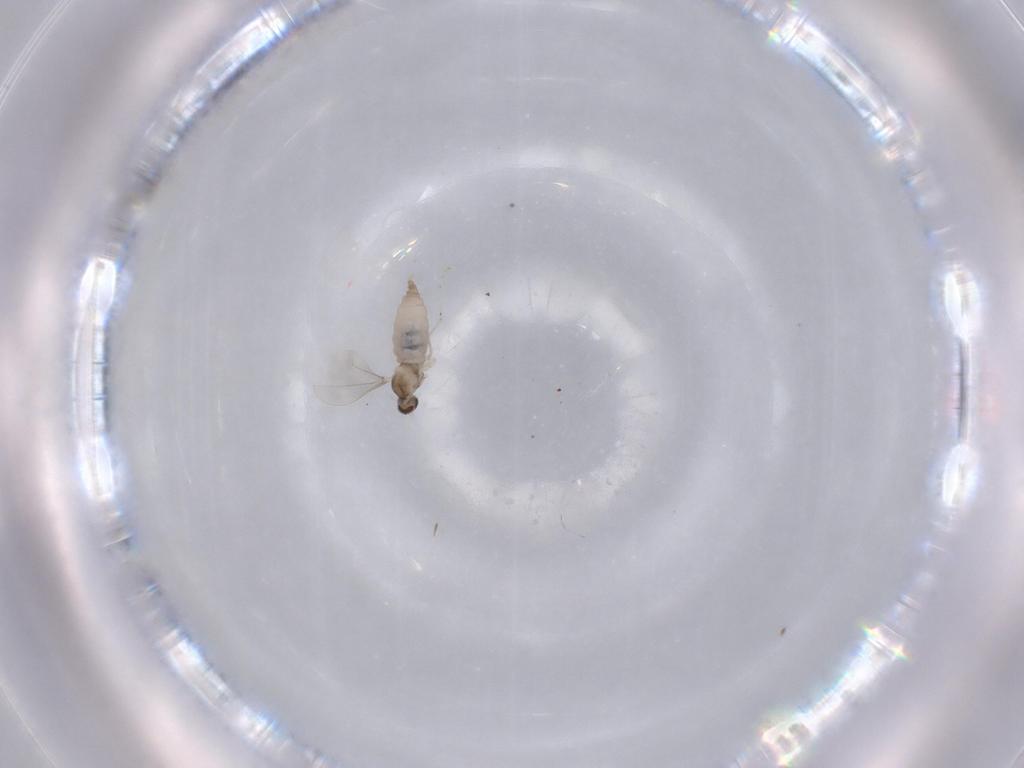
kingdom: Animalia
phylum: Arthropoda
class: Insecta
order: Diptera
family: Cecidomyiidae
